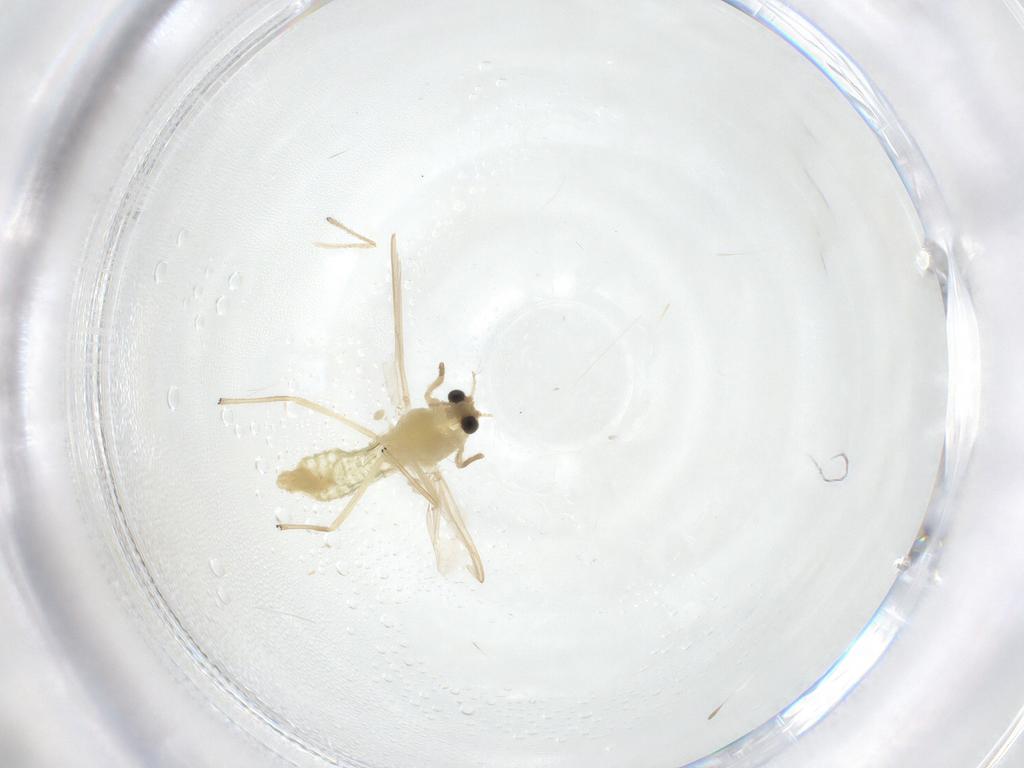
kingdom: Animalia
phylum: Arthropoda
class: Insecta
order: Diptera
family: Chironomidae
